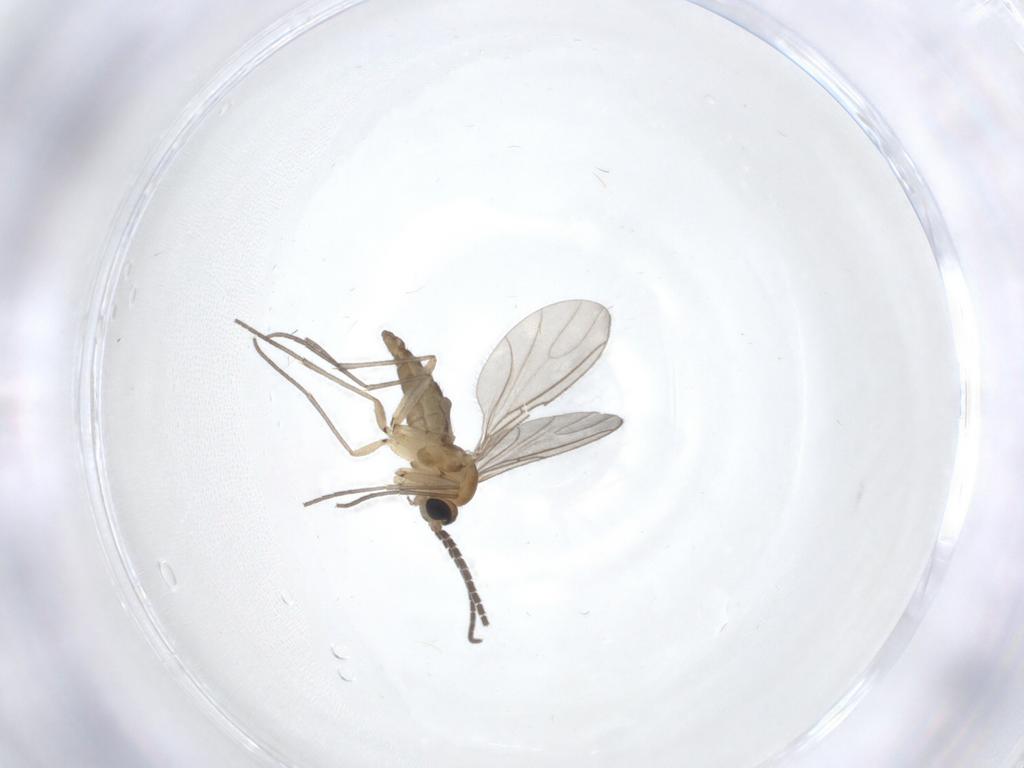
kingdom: Animalia
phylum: Arthropoda
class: Insecta
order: Diptera
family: Sciaridae
